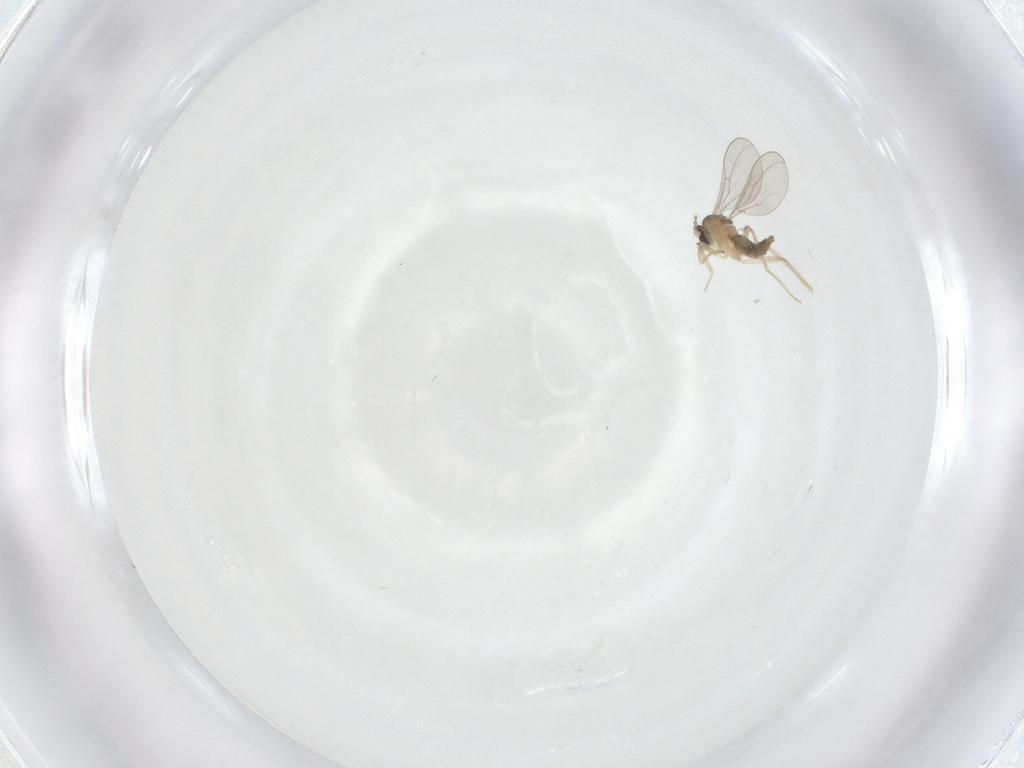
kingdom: Animalia
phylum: Arthropoda
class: Insecta
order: Diptera
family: Cecidomyiidae
